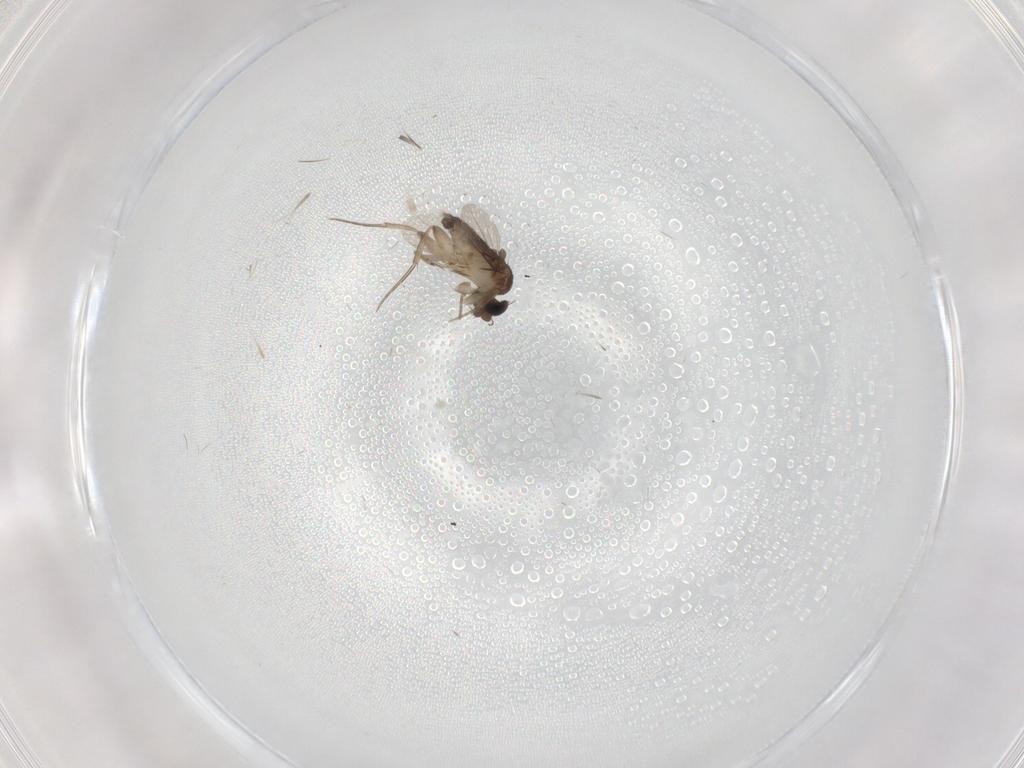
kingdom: Animalia
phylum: Arthropoda
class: Insecta
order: Diptera
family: Phoridae
